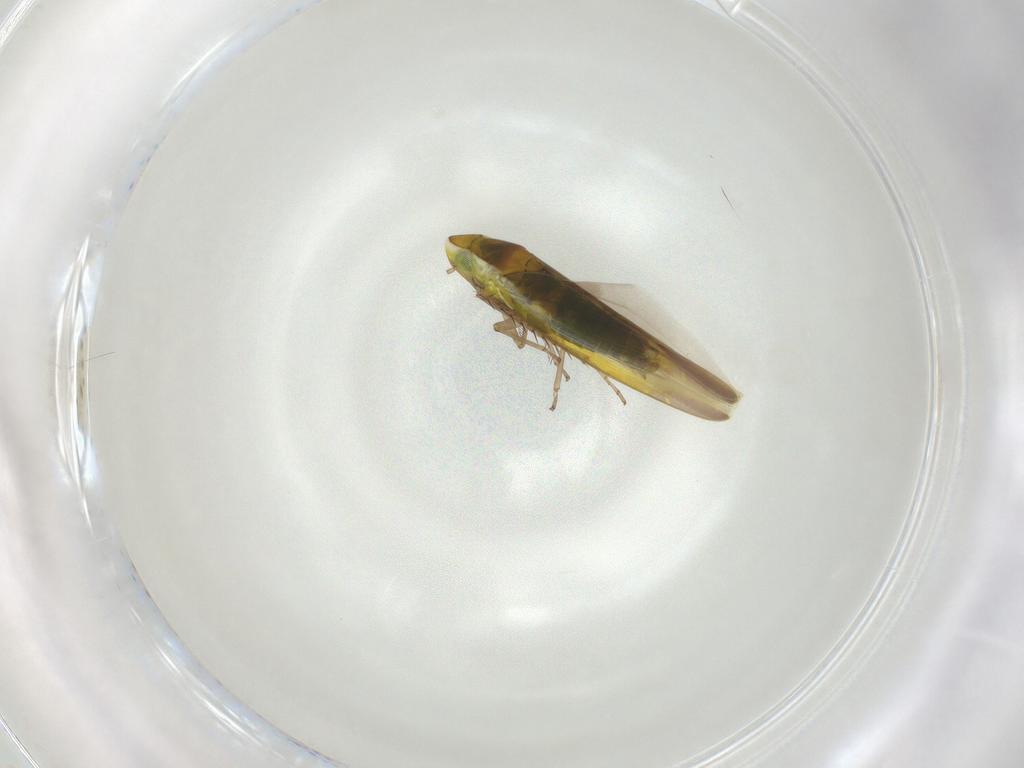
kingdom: Animalia
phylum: Arthropoda
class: Insecta
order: Hemiptera
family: Cicadellidae
